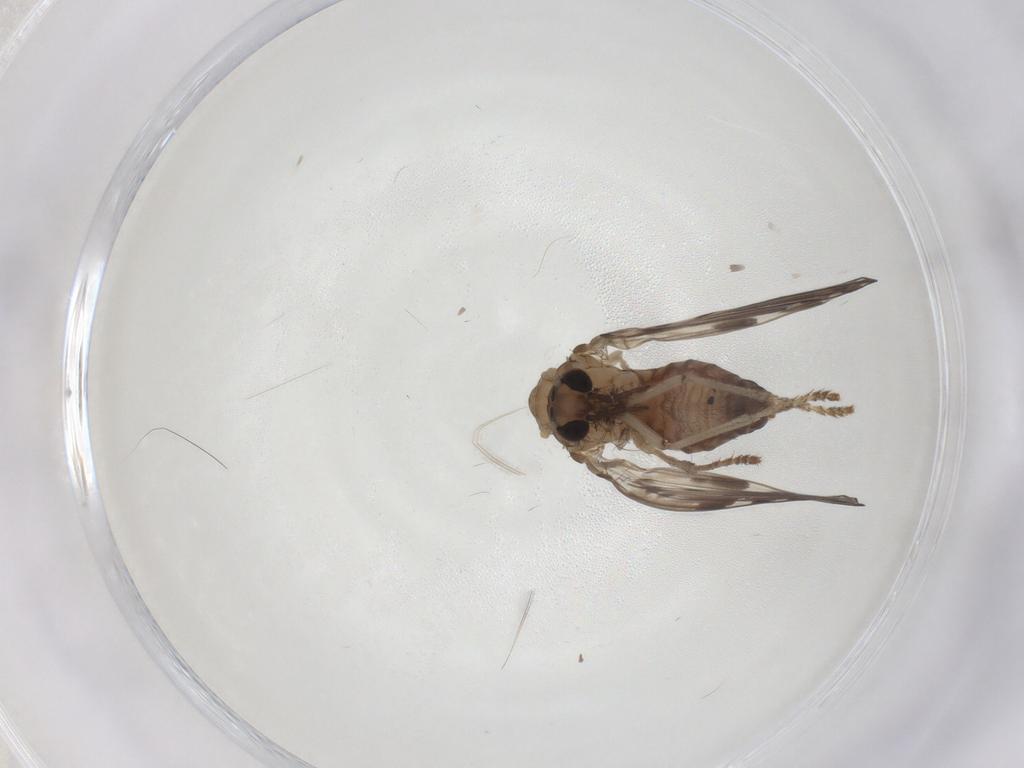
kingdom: Animalia
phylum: Arthropoda
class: Insecta
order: Diptera
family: Psychodidae
